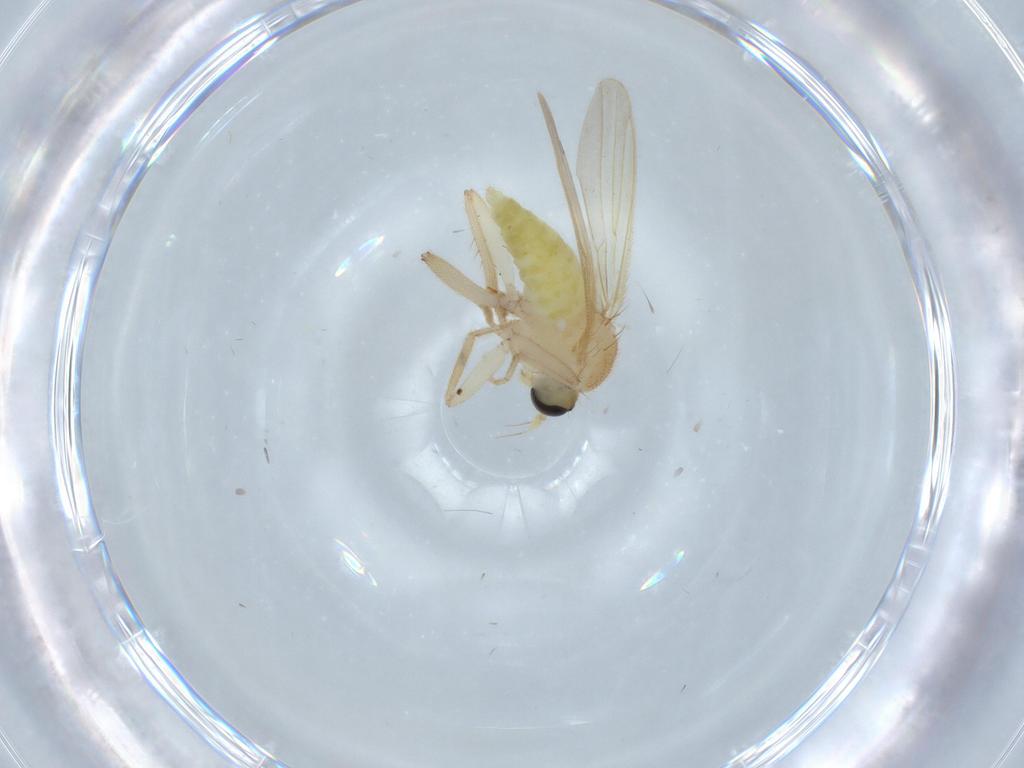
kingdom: Animalia
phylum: Arthropoda
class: Insecta
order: Diptera
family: Hybotidae
